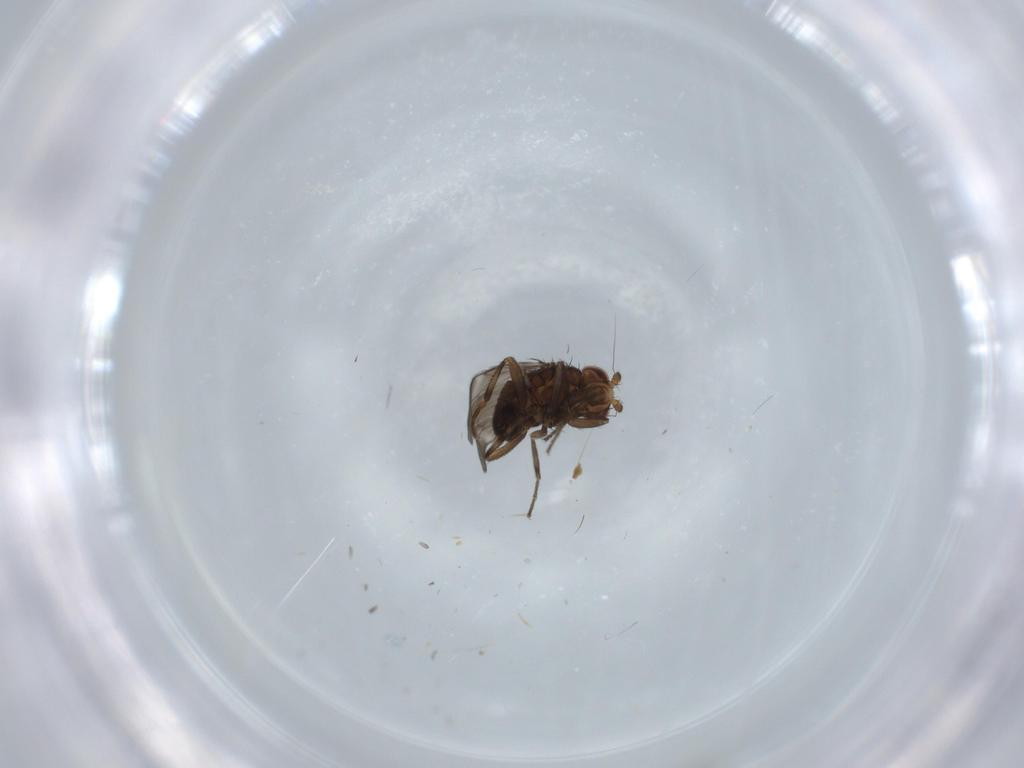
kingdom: Animalia
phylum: Arthropoda
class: Insecta
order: Diptera
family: Sphaeroceridae
